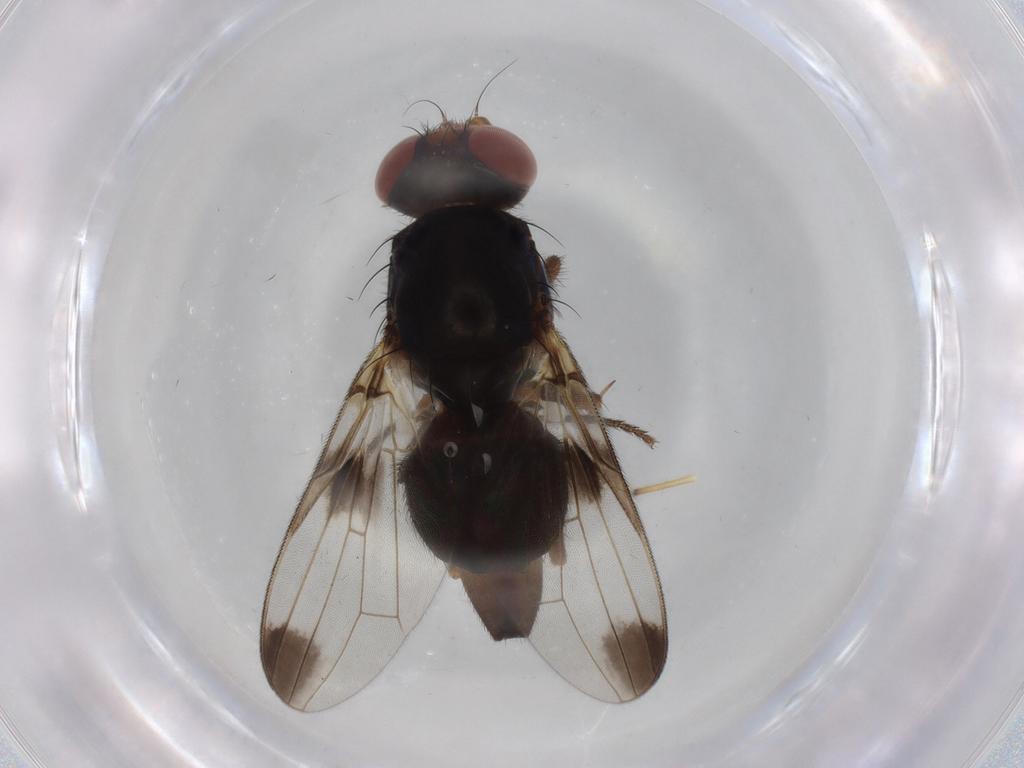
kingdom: Animalia
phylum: Arthropoda
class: Insecta
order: Diptera
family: Ulidiidae
